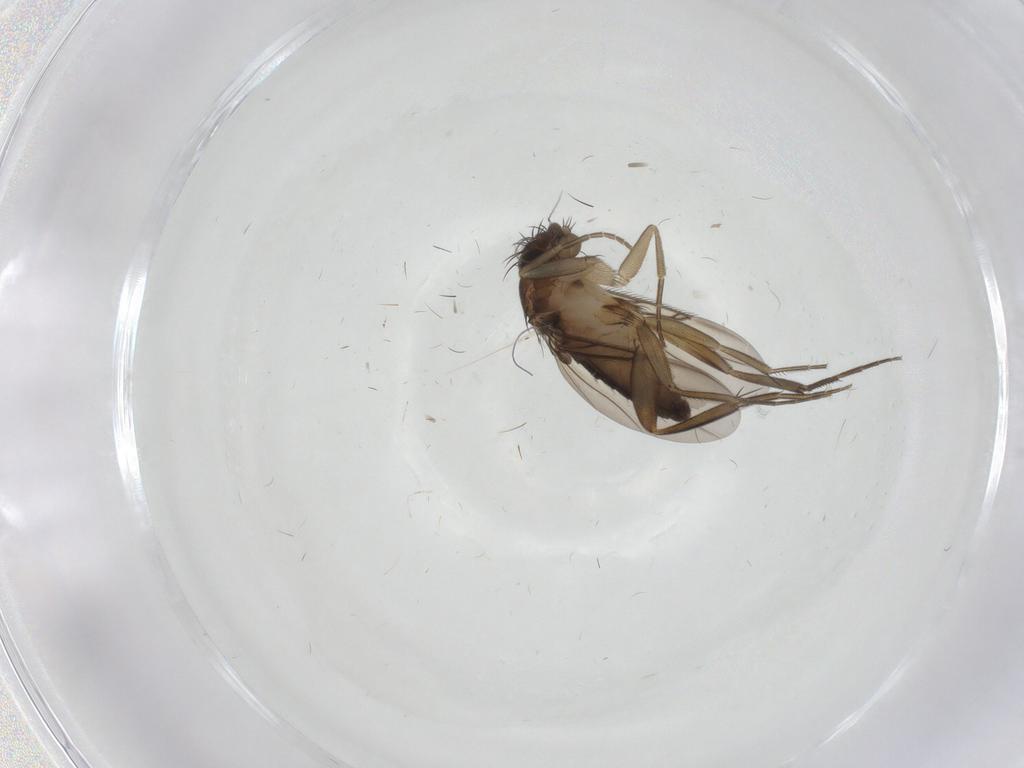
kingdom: Animalia
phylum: Arthropoda
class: Insecta
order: Diptera
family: Phoridae
